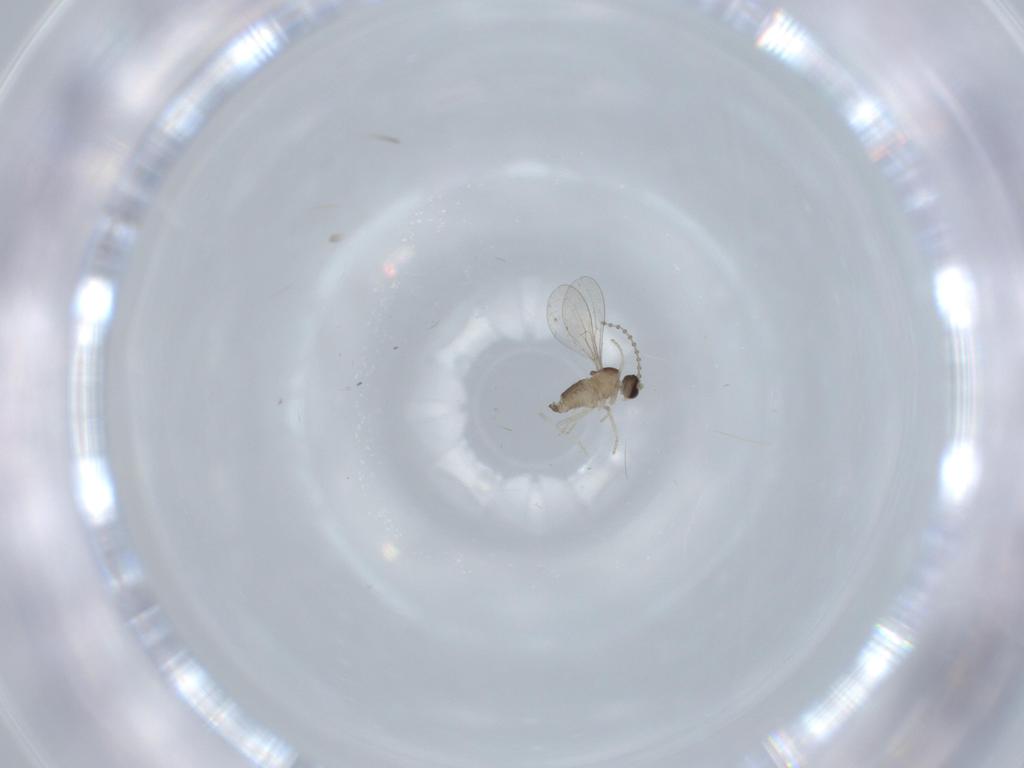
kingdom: Animalia
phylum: Arthropoda
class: Insecta
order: Diptera
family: Cecidomyiidae
